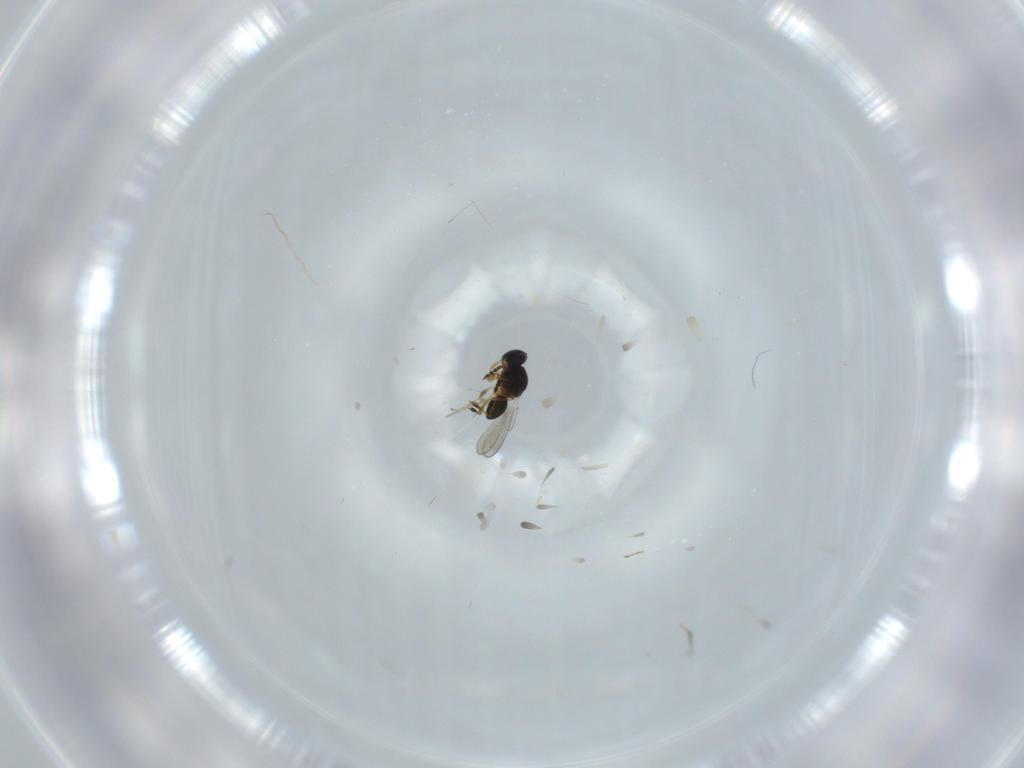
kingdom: Animalia
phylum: Arthropoda
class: Insecta
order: Hymenoptera
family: Platygastridae
